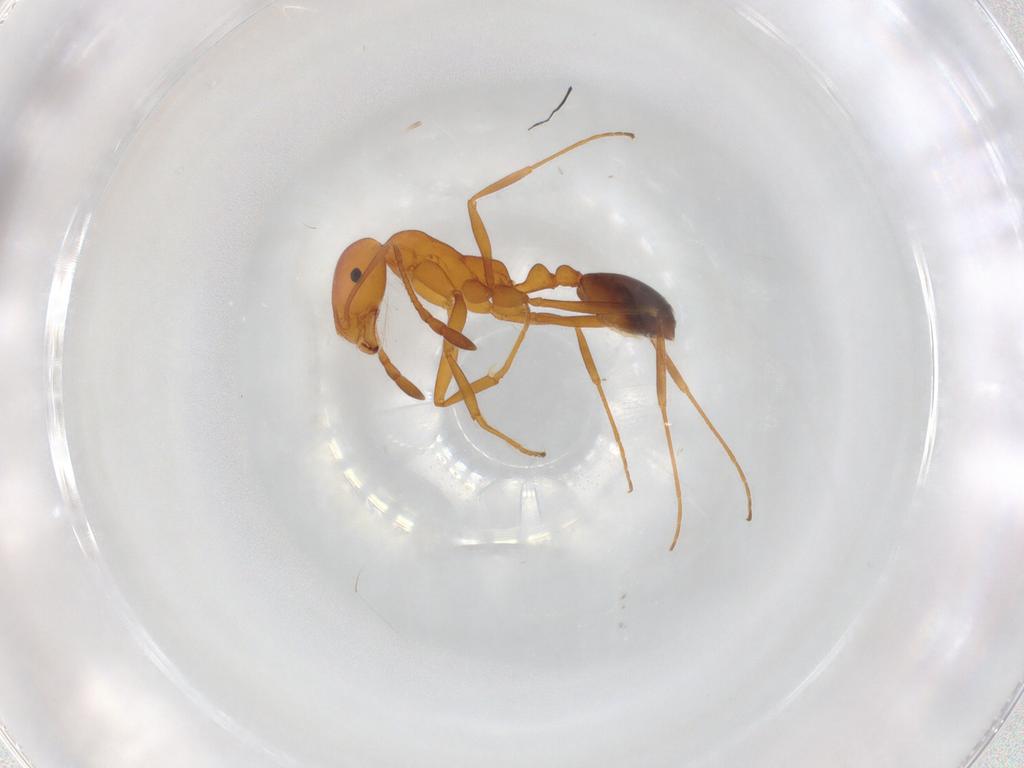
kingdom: Animalia
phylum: Arthropoda
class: Insecta
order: Hymenoptera
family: Formicidae
